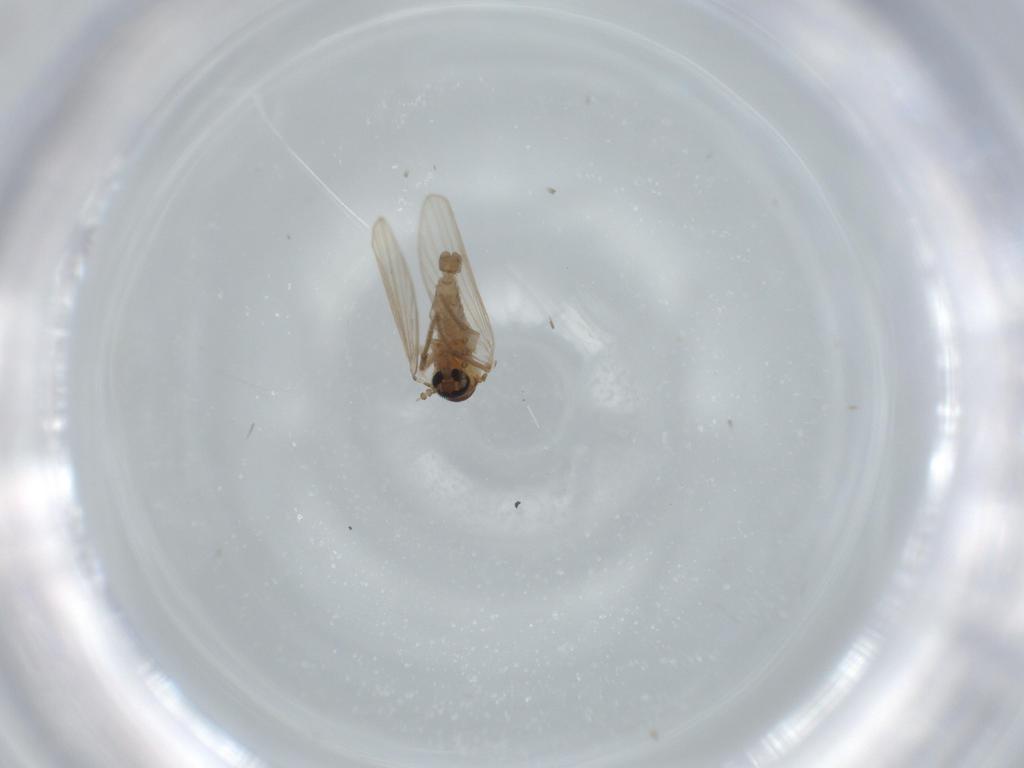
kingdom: Animalia
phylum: Arthropoda
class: Insecta
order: Diptera
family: Psychodidae
